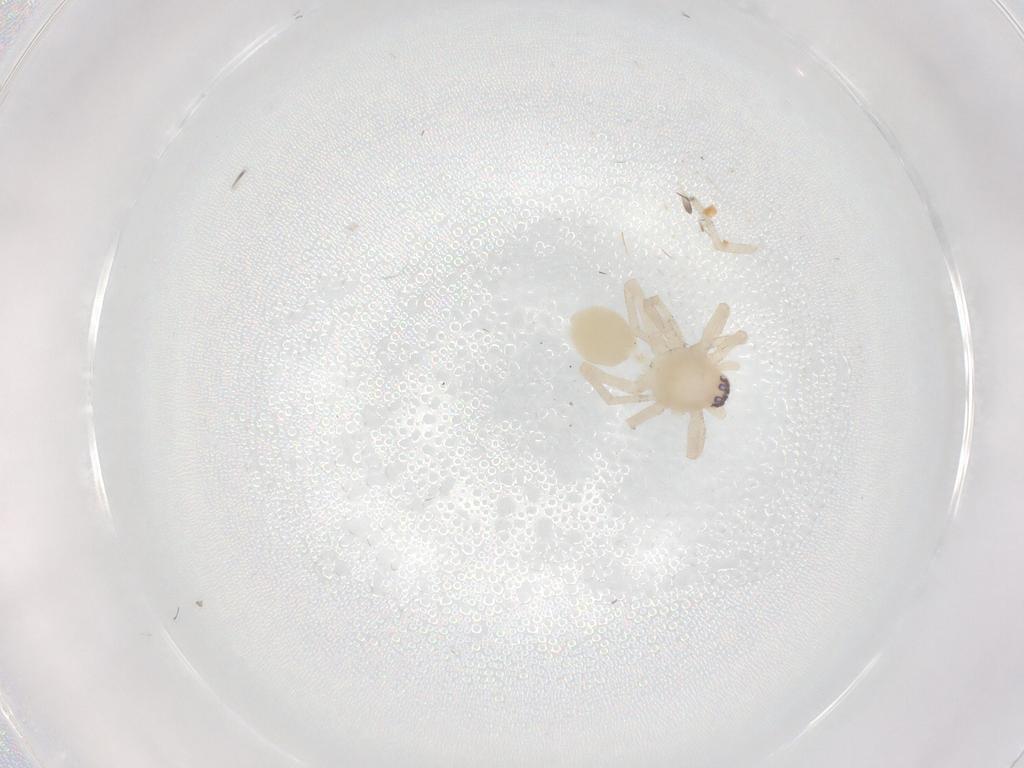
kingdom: Animalia
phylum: Arthropoda
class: Arachnida
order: Araneae
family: Clubionidae
